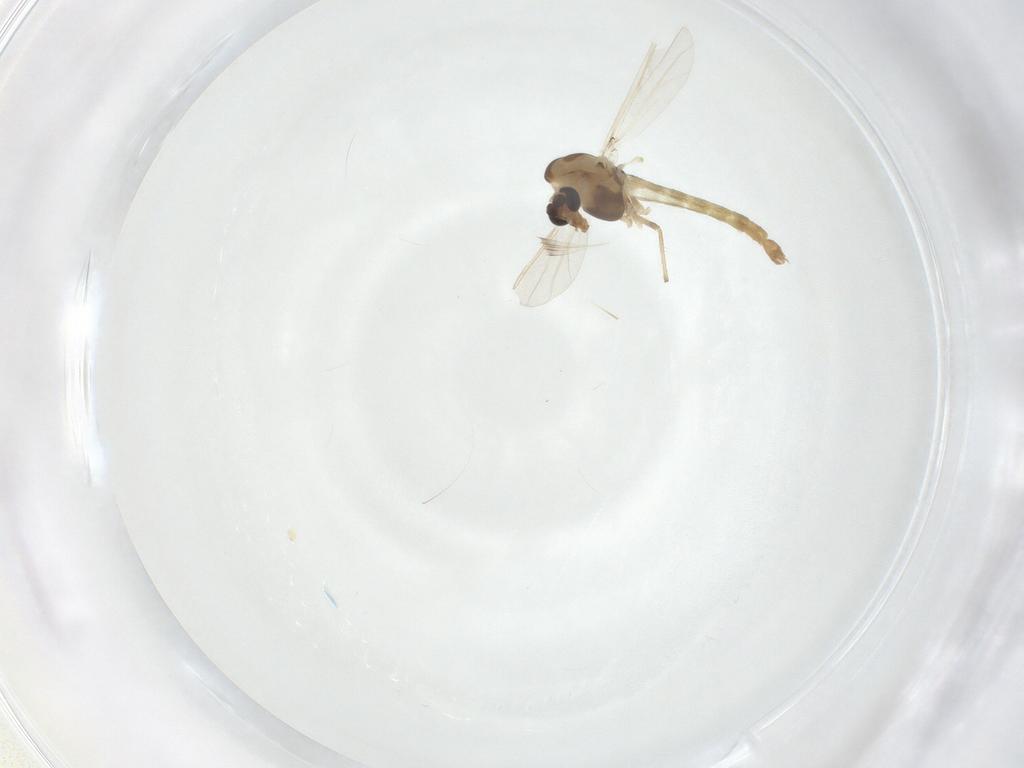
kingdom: Animalia
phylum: Arthropoda
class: Insecta
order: Diptera
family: Chironomidae
